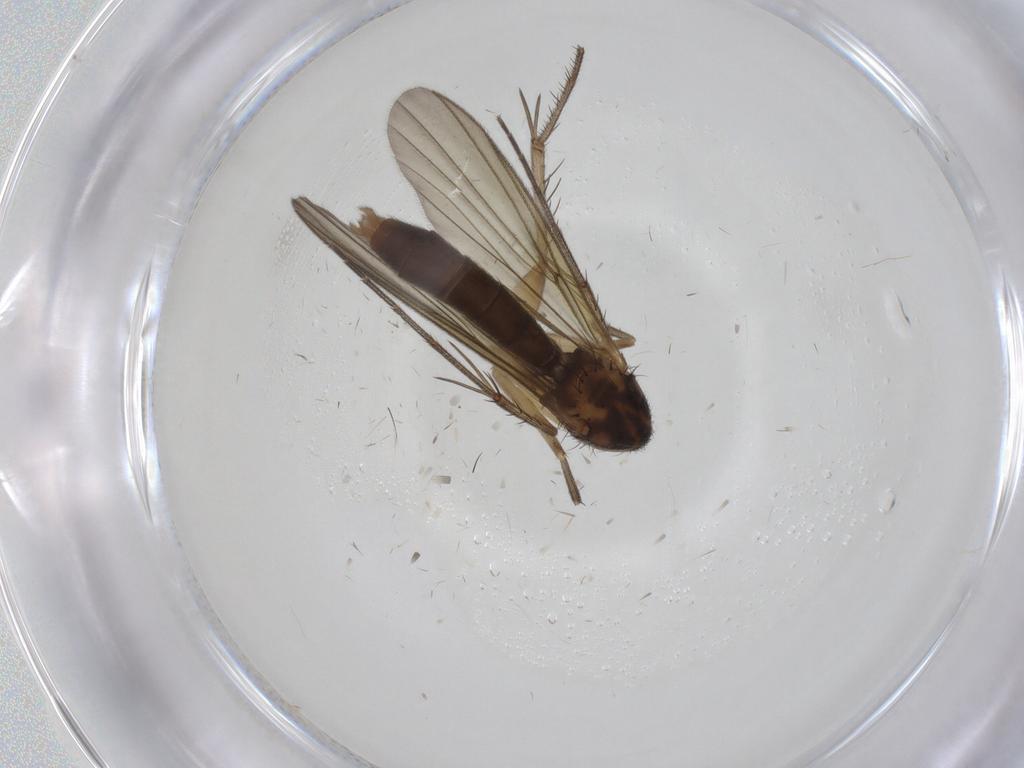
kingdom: Animalia
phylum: Arthropoda
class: Insecta
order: Diptera
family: Mycetophilidae
